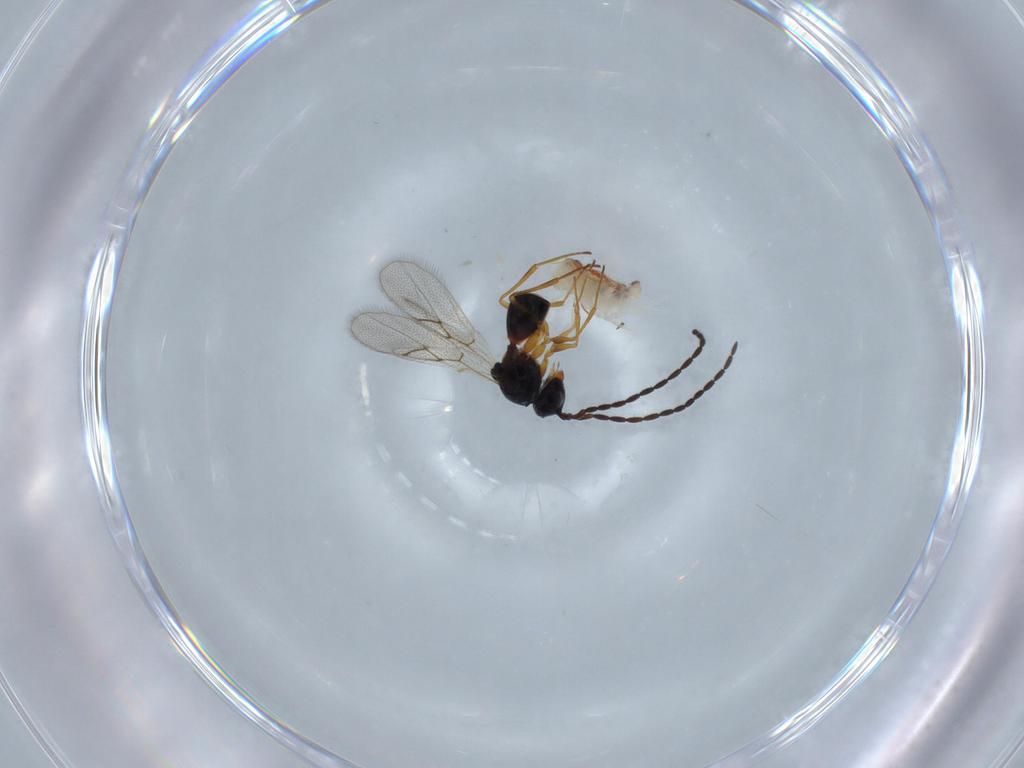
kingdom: Animalia
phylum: Arthropoda
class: Insecta
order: Hymenoptera
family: Figitidae
